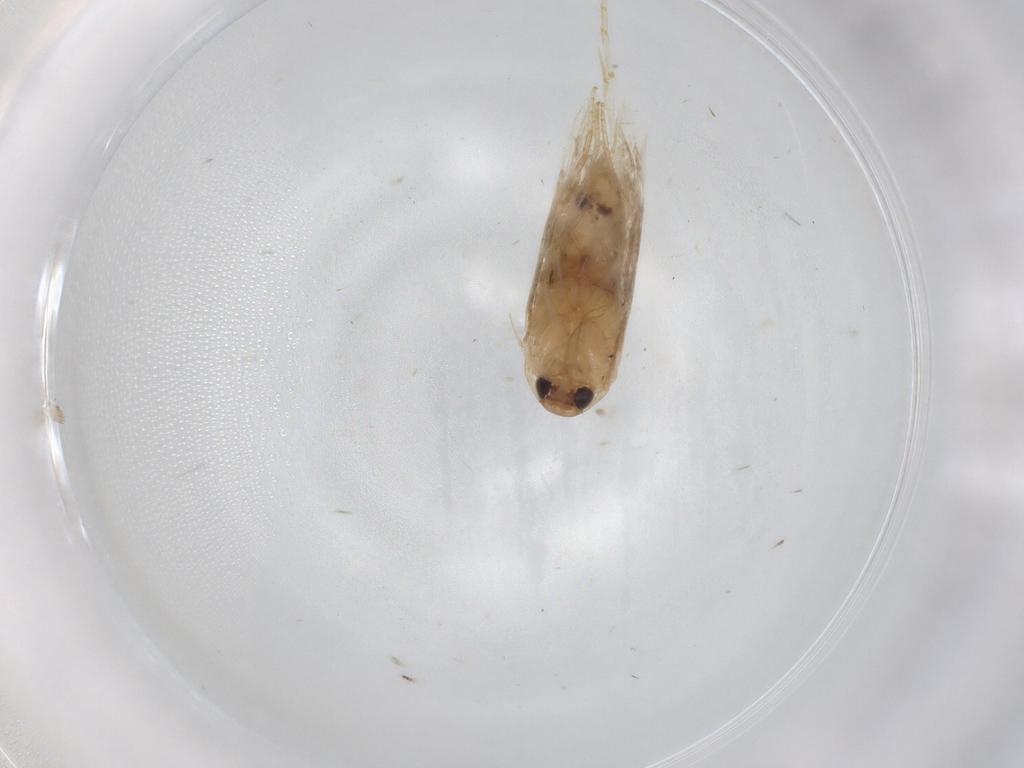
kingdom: Animalia
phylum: Arthropoda
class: Insecta
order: Lepidoptera
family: Cosmopterigidae
